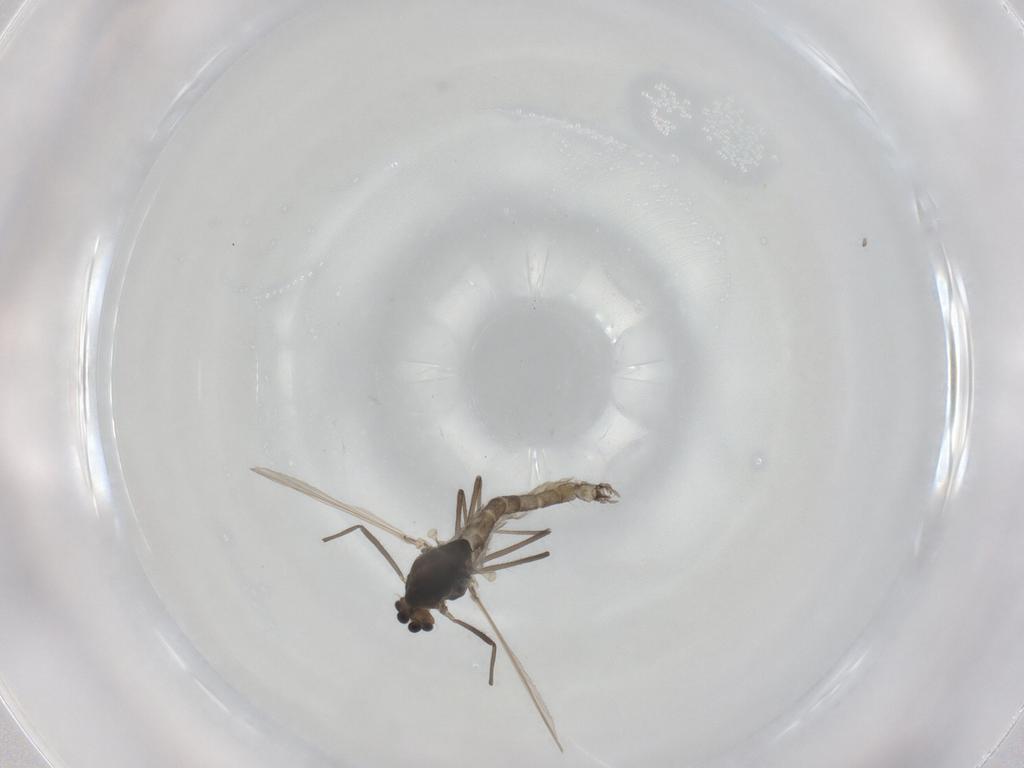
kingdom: Animalia
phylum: Arthropoda
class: Insecta
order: Diptera
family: Chironomidae
